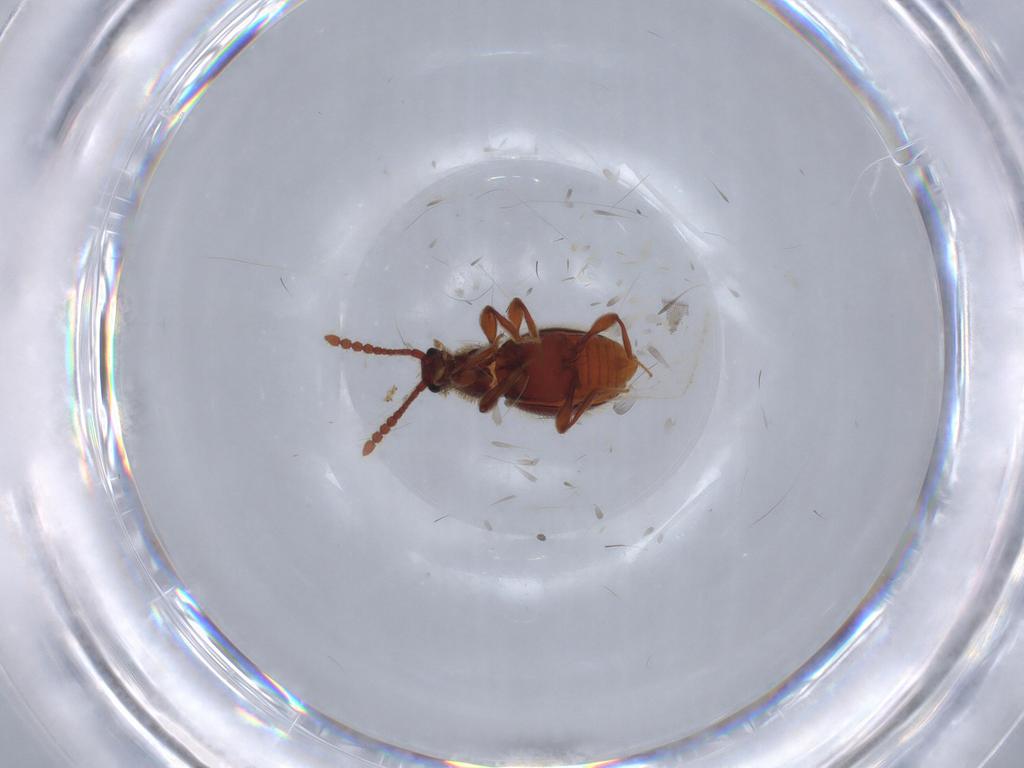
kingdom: Animalia
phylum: Arthropoda
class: Insecta
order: Coleoptera
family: Staphylinidae
